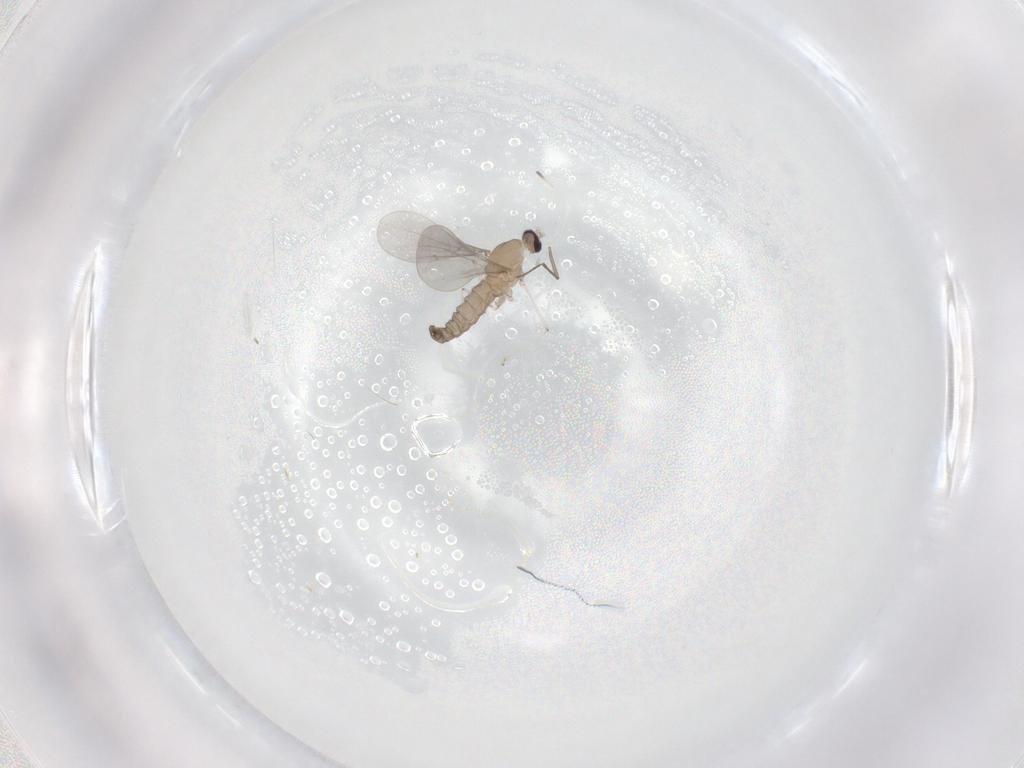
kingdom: Animalia
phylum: Arthropoda
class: Insecta
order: Diptera
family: Cecidomyiidae
